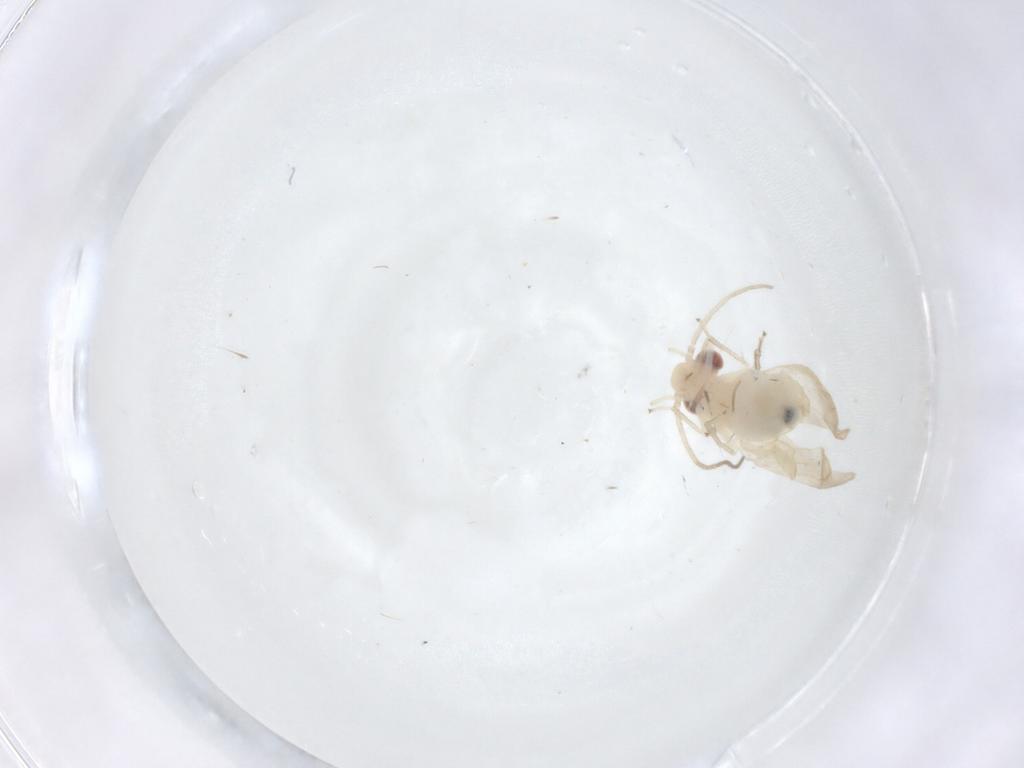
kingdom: Animalia
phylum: Arthropoda
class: Insecta
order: Psocodea
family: Caeciliusidae
